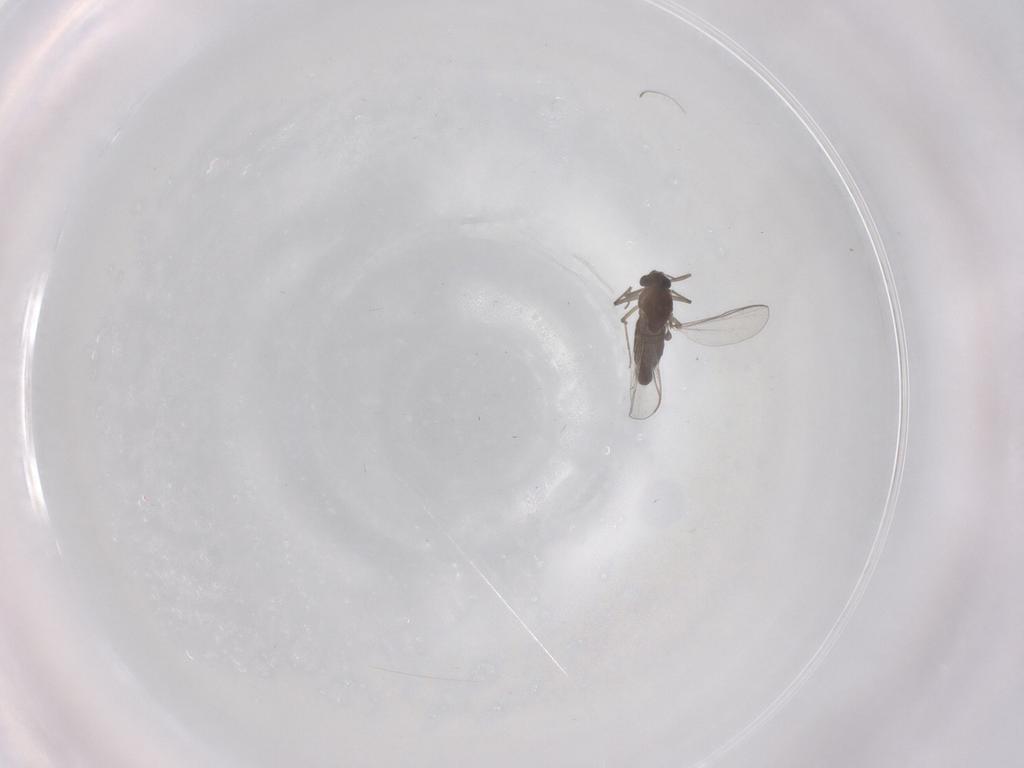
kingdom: Animalia
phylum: Arthropoda
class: Insecta
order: Diptera
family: Chironomidae
